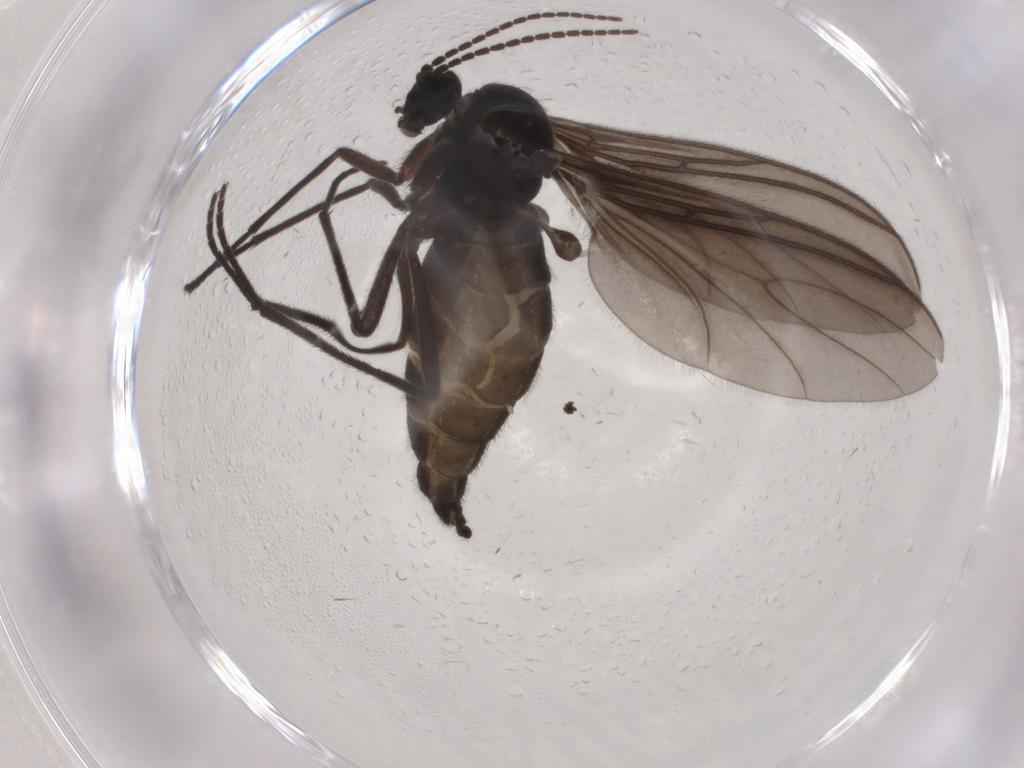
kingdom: Animalia
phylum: Arthropoda
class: Insecta
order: Diptera
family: Sciaridae
